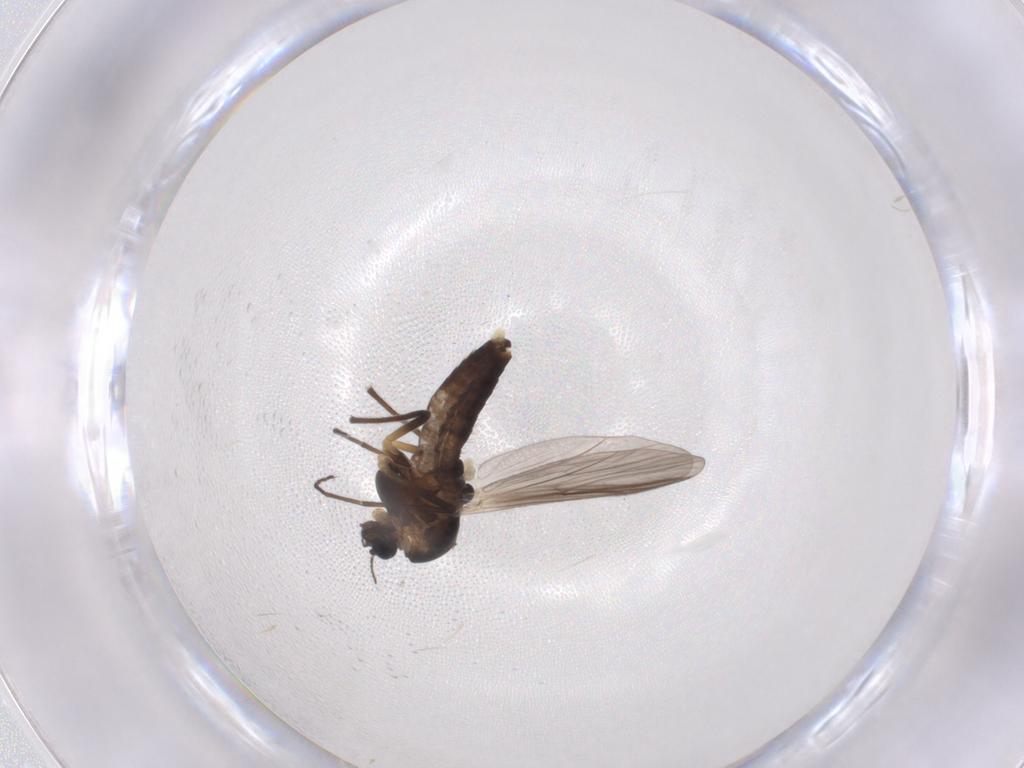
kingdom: Animalia
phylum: Arthropoda
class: Insecta
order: Diptera
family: Chironomidae
